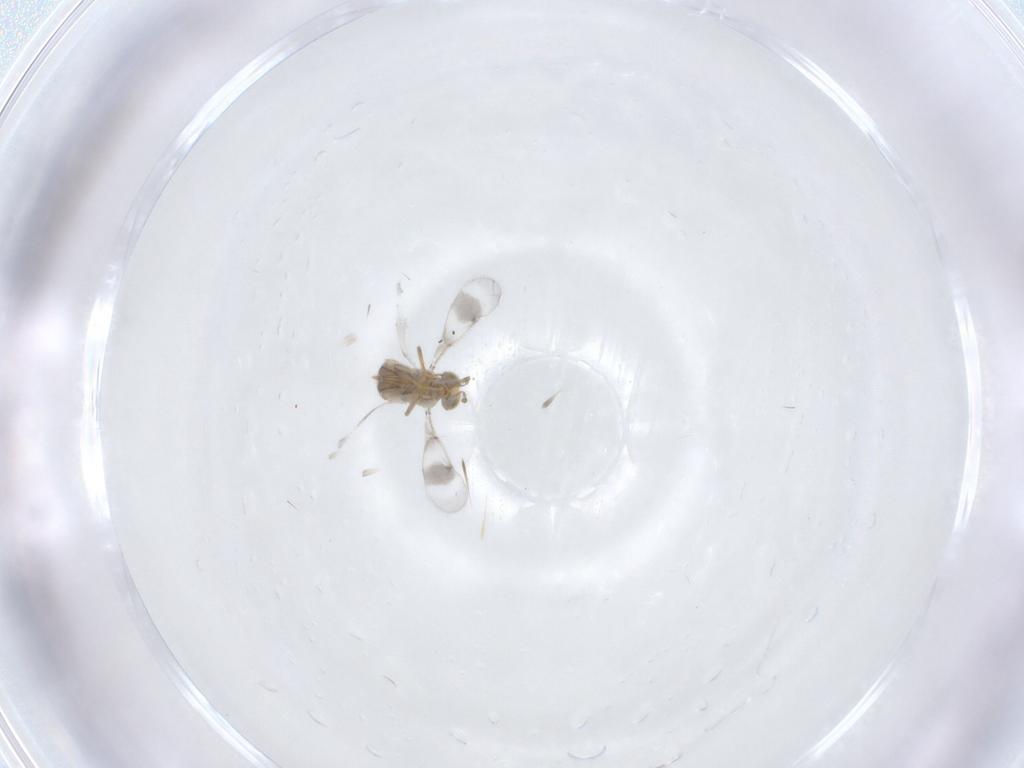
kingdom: Animalia
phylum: Arthropoda
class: Insecta
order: Hymenoptera
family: Aphelinidae
